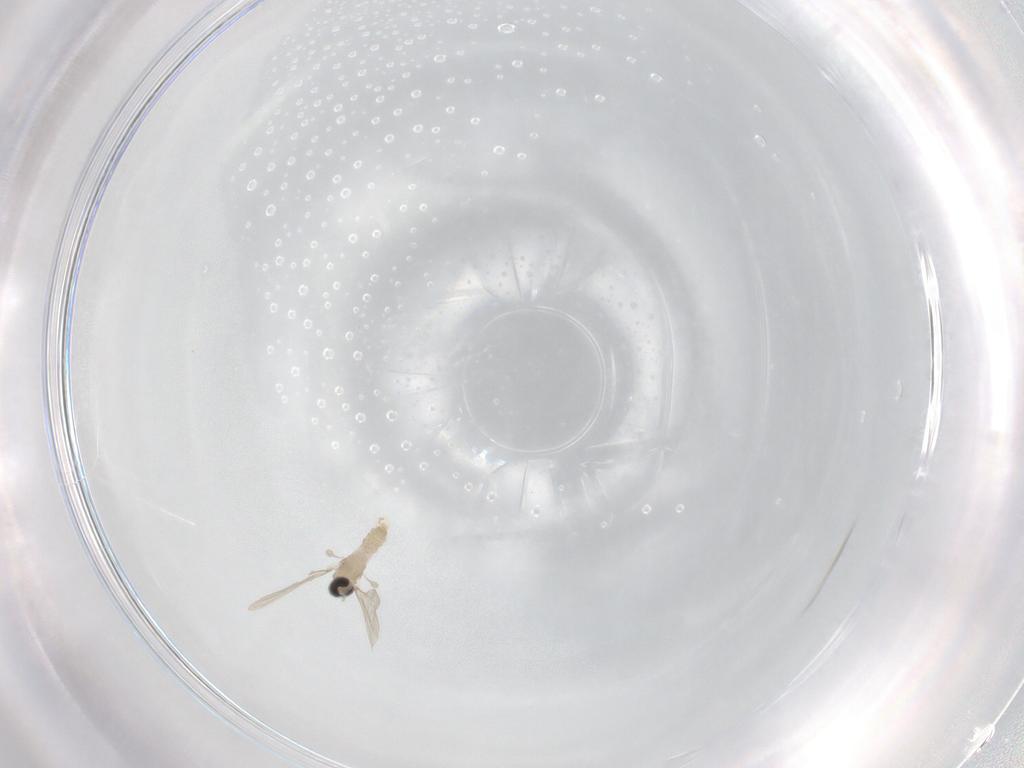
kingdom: Animalia
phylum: Arthropoda
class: Insecta
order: Diptera
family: Cecidomyiidae
